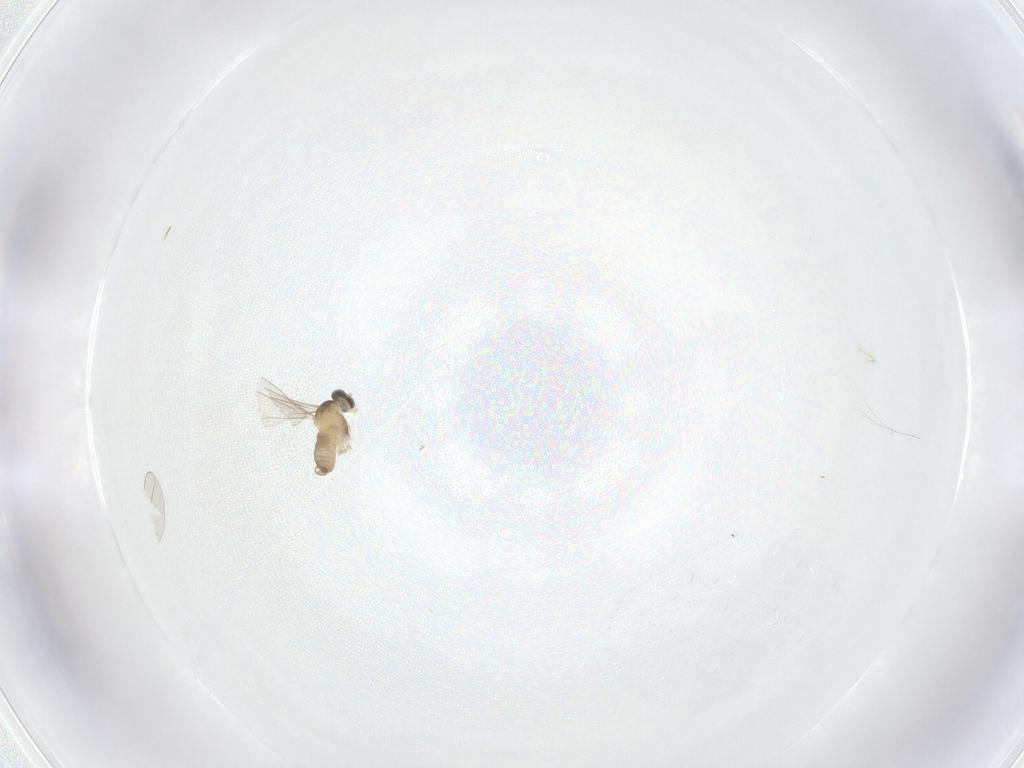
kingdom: Animalia
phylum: Arthropoda
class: Insecta
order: Diptera
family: Cecidomyiidae
